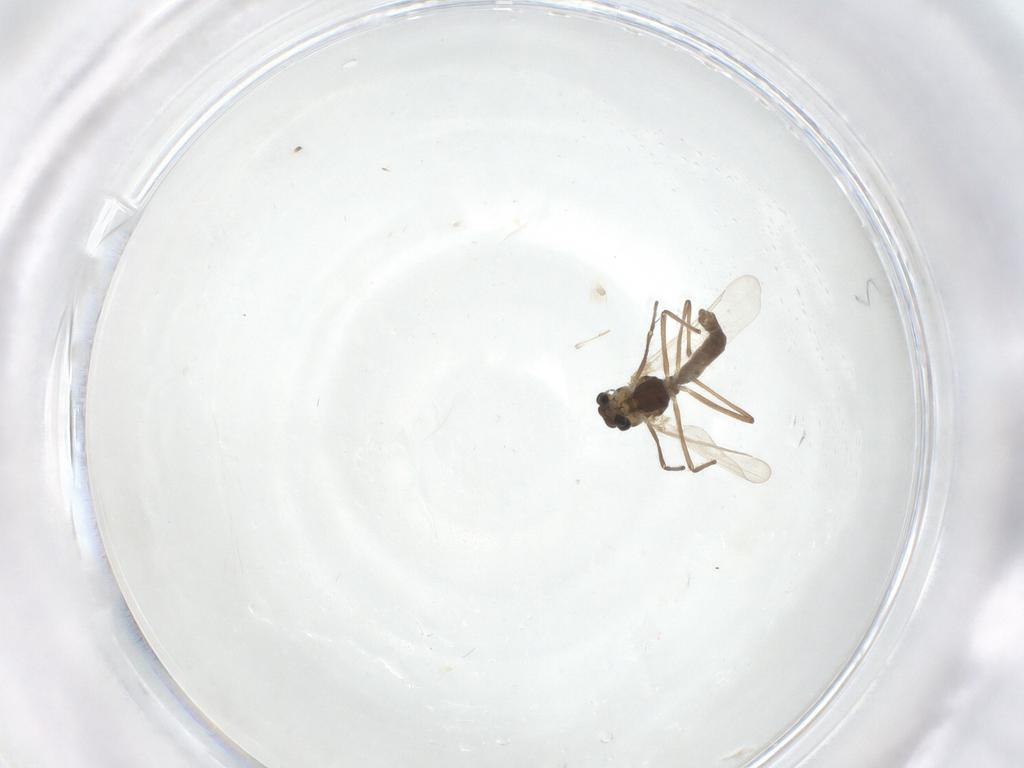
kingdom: Animalia
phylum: Arthropoda
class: Insecta
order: Diptera
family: Chironomidae
